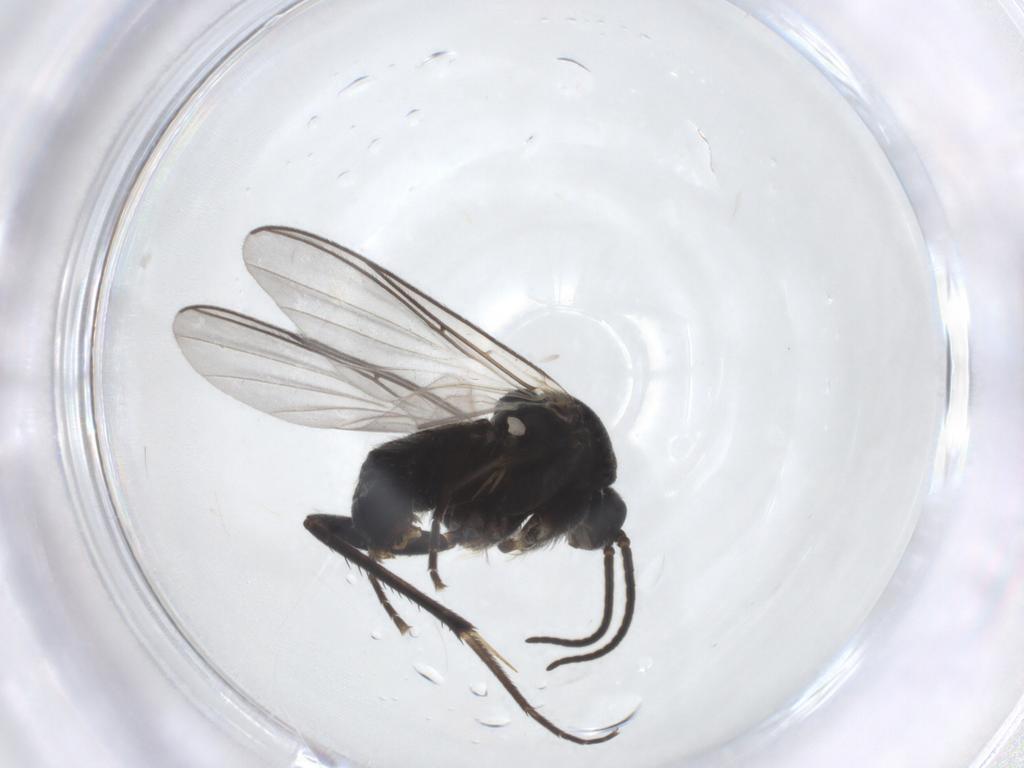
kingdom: Animalia
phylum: Arthropoda
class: Insecta
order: Diptera
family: Mycetophilidae
